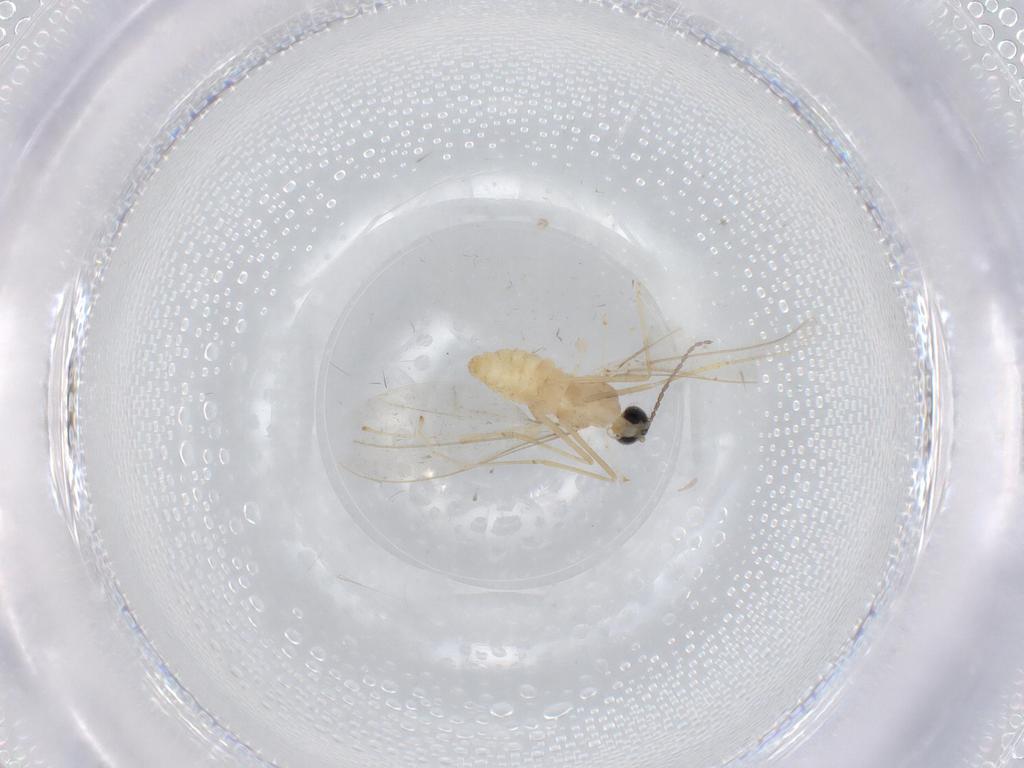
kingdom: Animalia
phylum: Arthropoda
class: Insecta
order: Diptera
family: Cecidomyiidae
